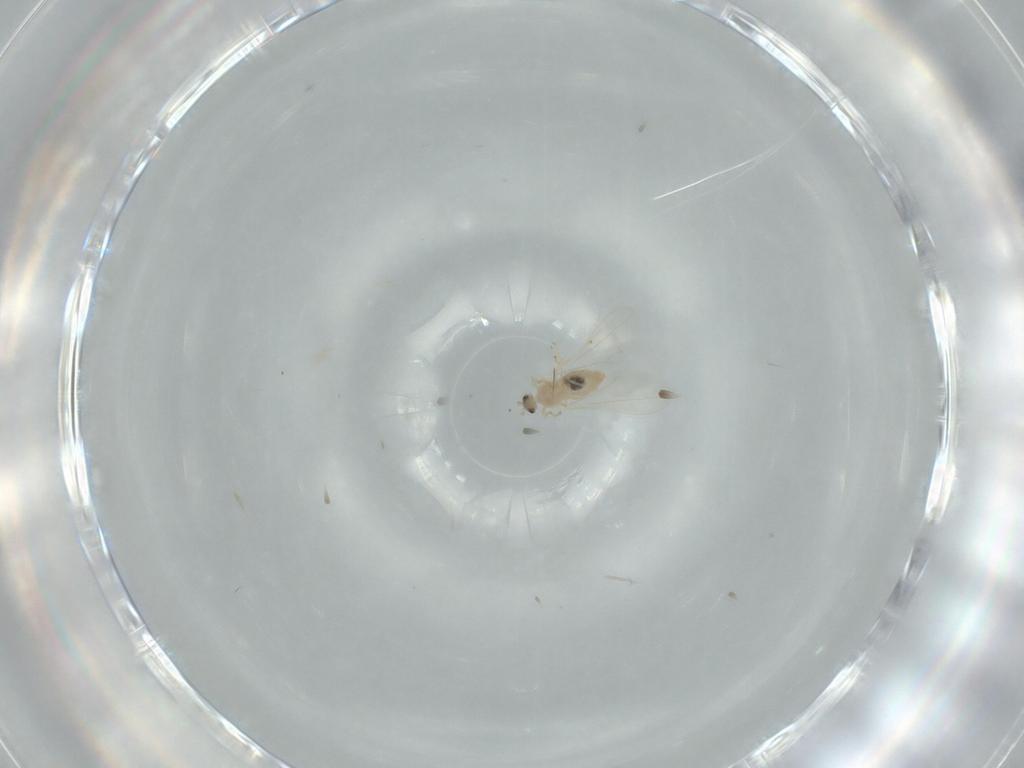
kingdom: Animalia
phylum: Arthropoda
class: Insecta
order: Diptera
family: Cecidomyiidae
